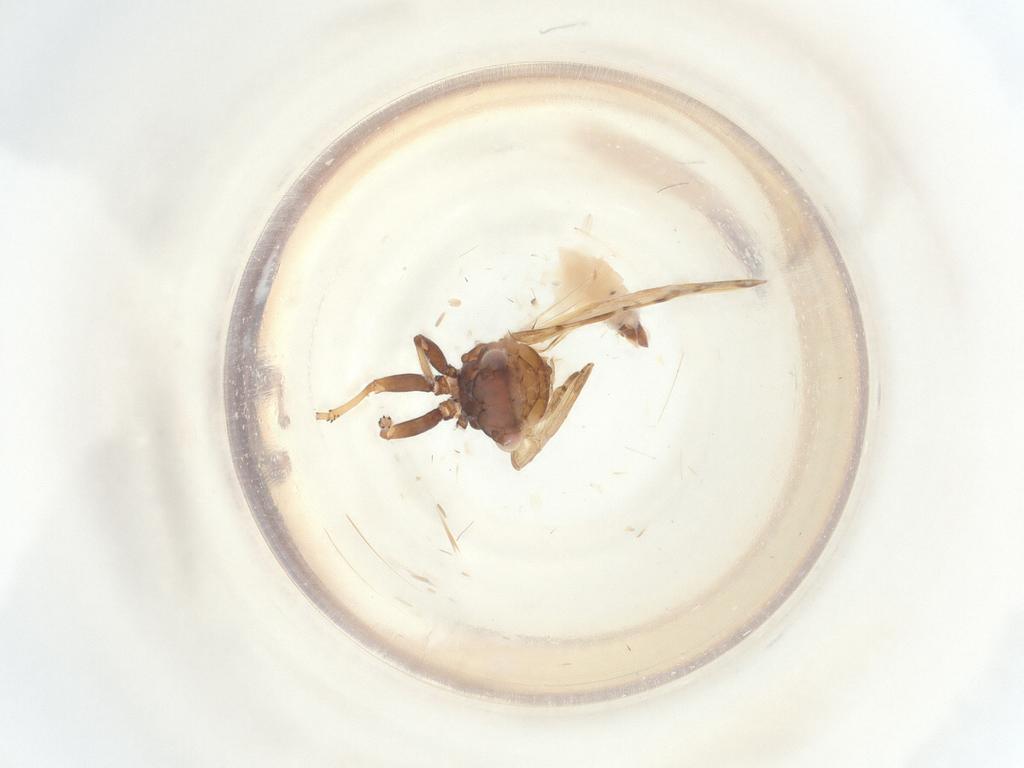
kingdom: Animalia
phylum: Arthropoda
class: Insecta
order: Hemiptera
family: Psyllidae
